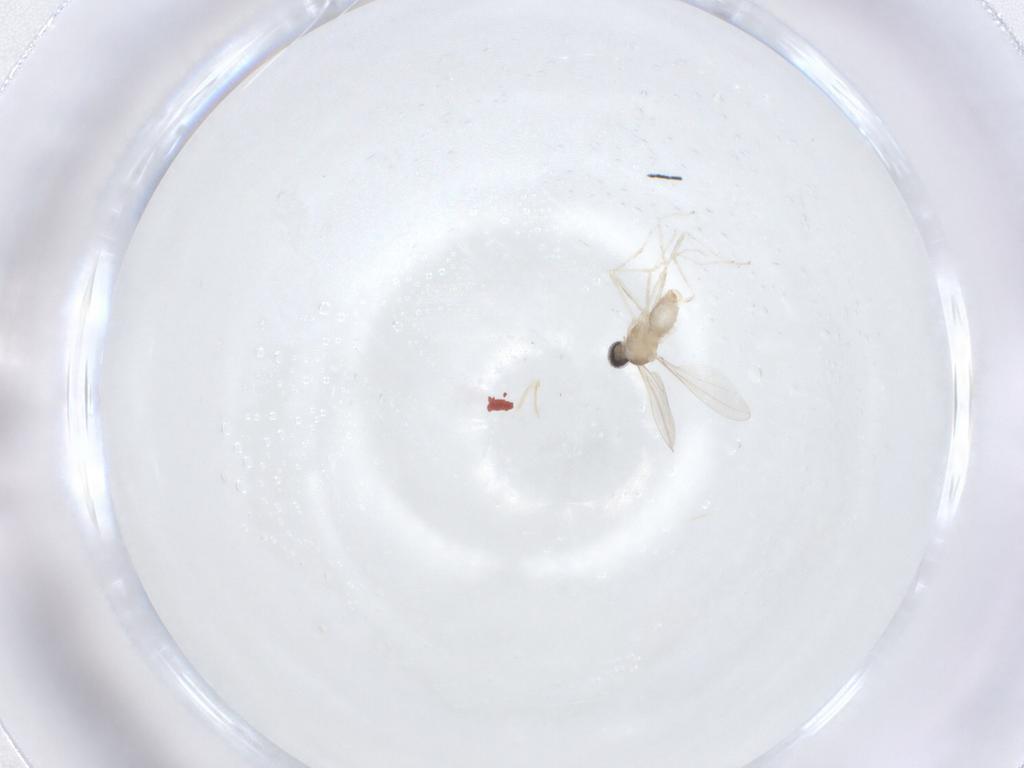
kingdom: Animalia
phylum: Arthropoda
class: Insecta
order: Diptera
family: Cecidomyiidae
